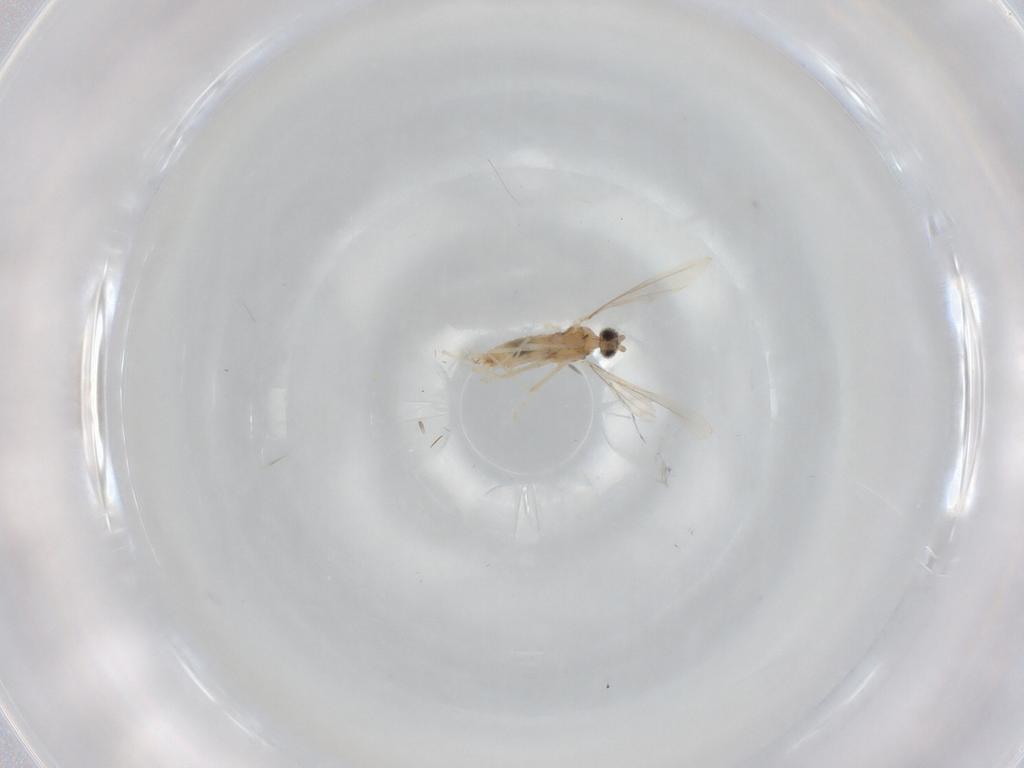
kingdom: Animalia
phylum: Arthropoda
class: Insecta
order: Diptera
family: Cecidomyiidae
